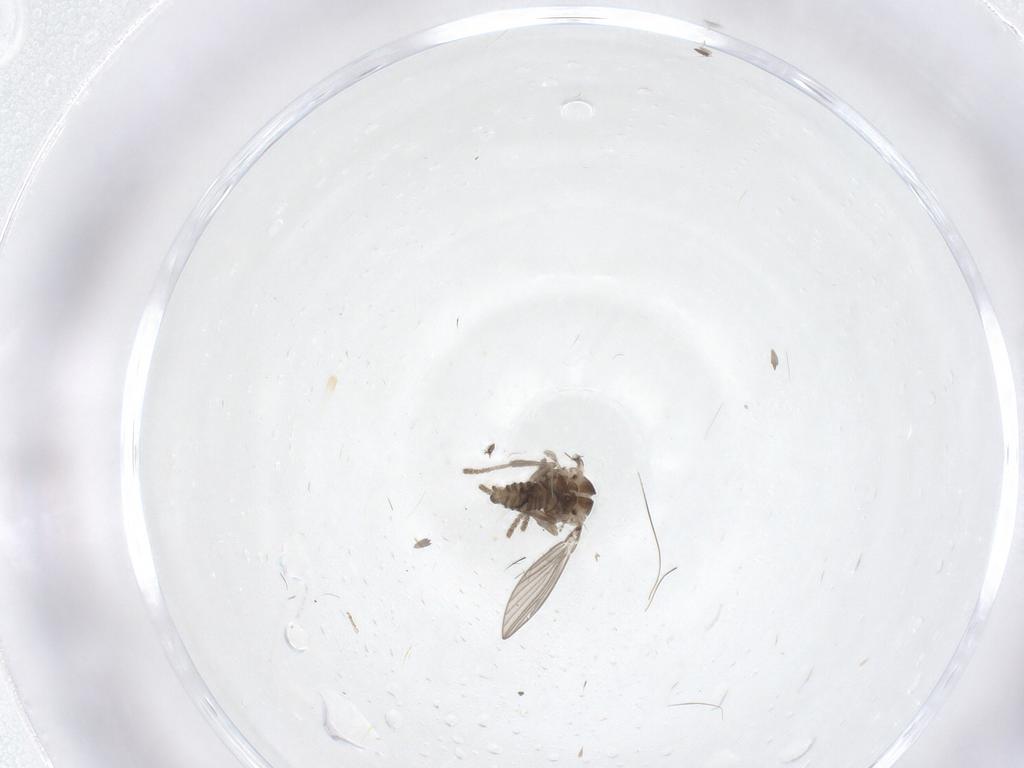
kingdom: Animalia
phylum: Arthropoda
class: Insecta
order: Diptera
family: Psychodidae
